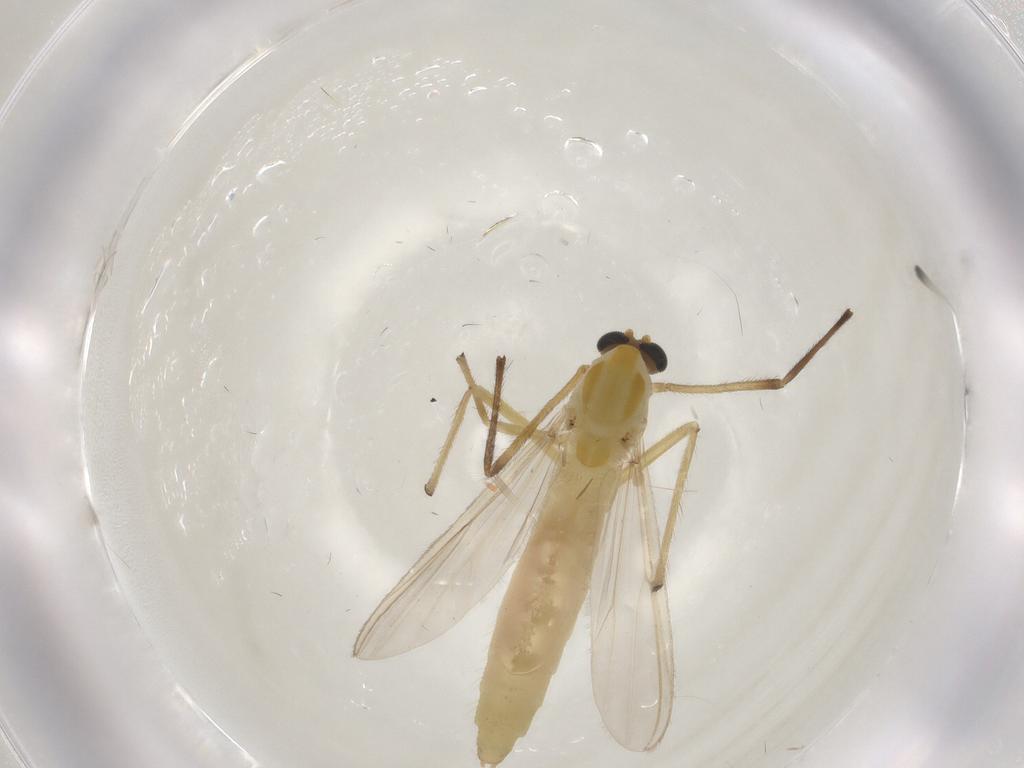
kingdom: Animalia
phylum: Arthropoda
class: Insecta
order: Diptera
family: Chironomidae
